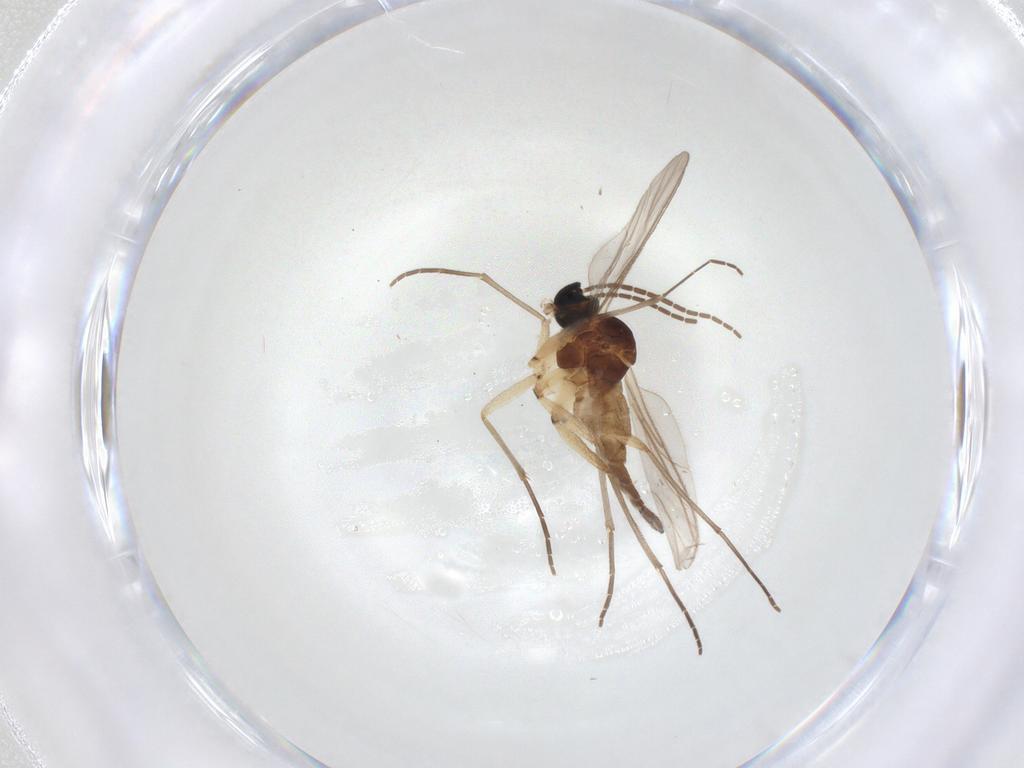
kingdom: Animalia
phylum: Arthropoda
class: Insecta
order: Diptera
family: Sciaridae
